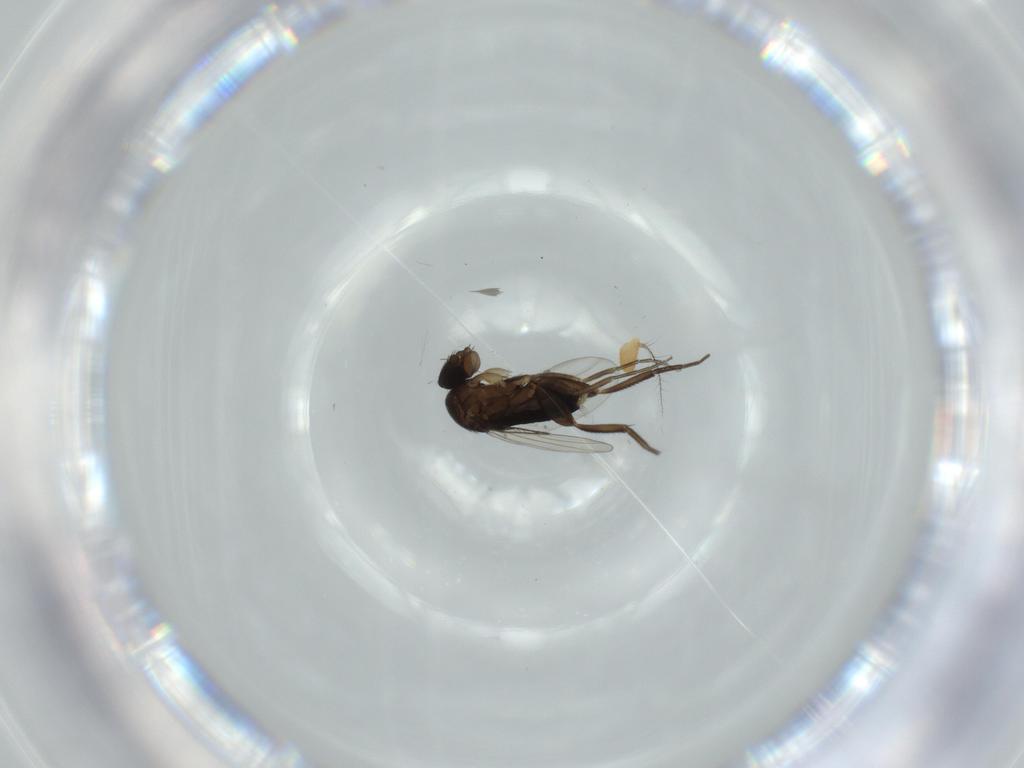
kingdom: Animalia
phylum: Arthropoda
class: Insecta
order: Diptera
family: Phoridae
